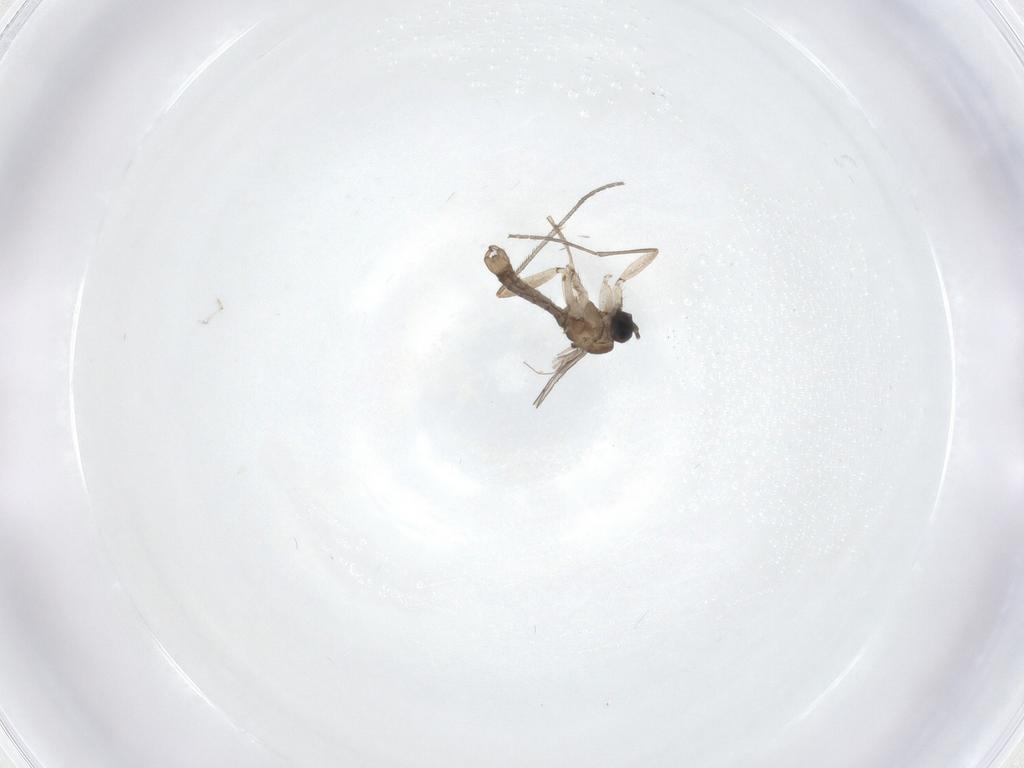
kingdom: Animalia
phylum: Arthropoda
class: Insecta
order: Diptera
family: Sciaridae
